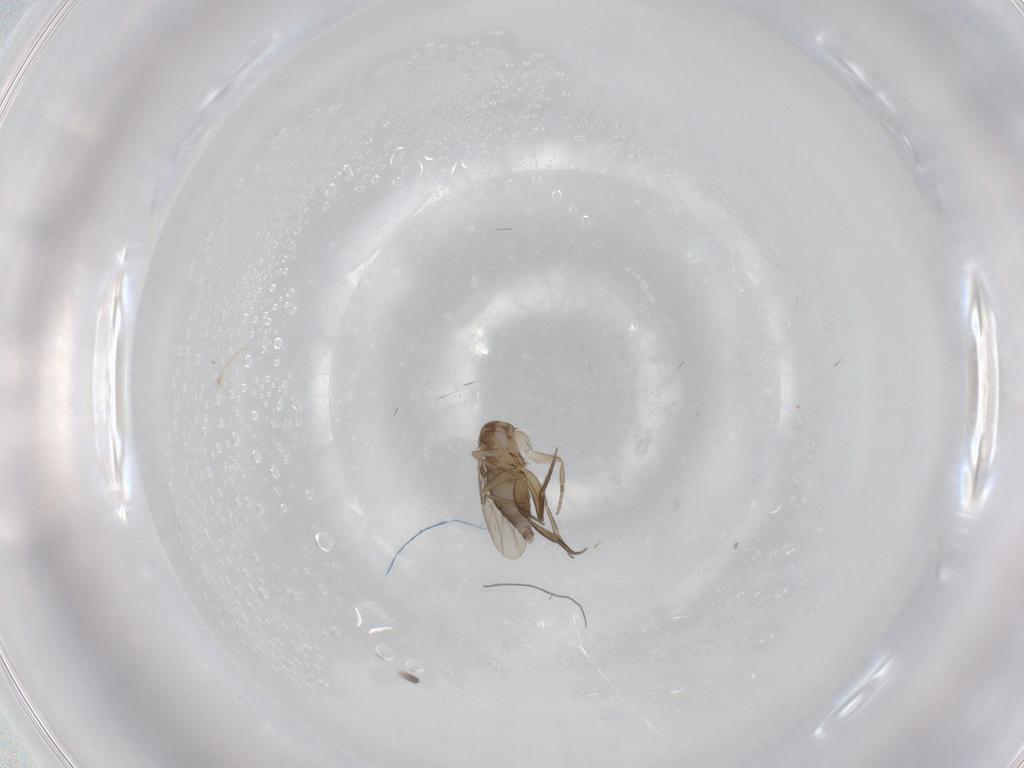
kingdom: Animalia
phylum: Arthropoda
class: Insecta
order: Diptera
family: Phoridae
